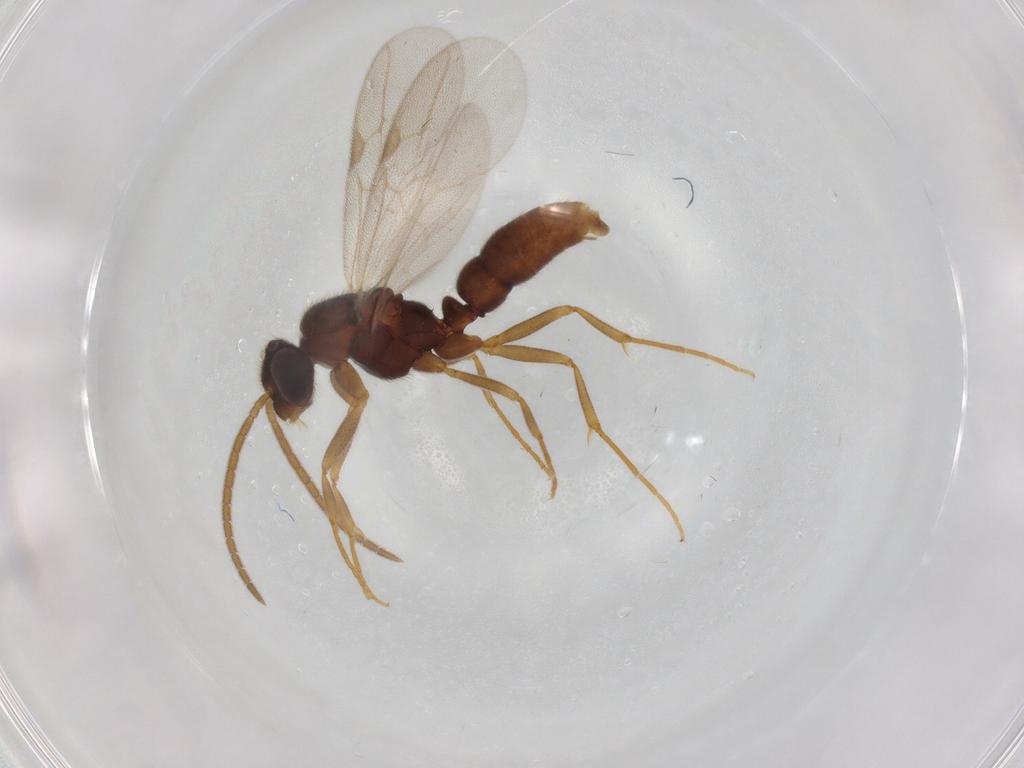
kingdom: Animalia
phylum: Arthropoda
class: Insecta
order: Hymenoptera
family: Formicidae
